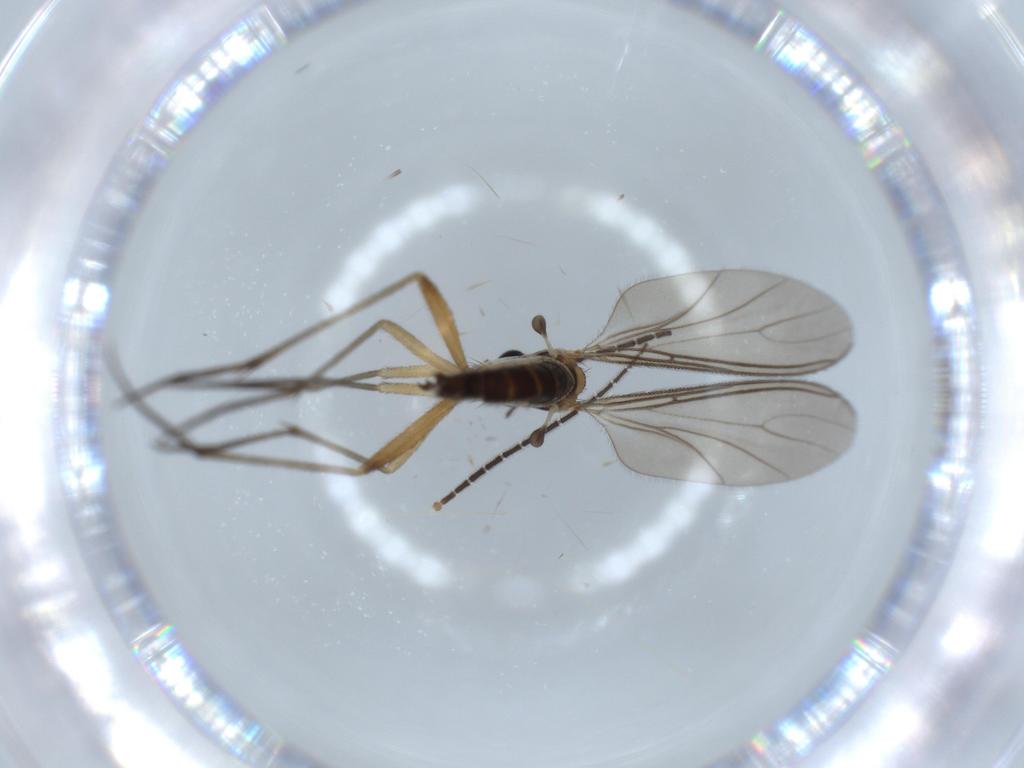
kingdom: Animalia
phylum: Arthropoda
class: Insecta
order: Diptera
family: Sciaridae
